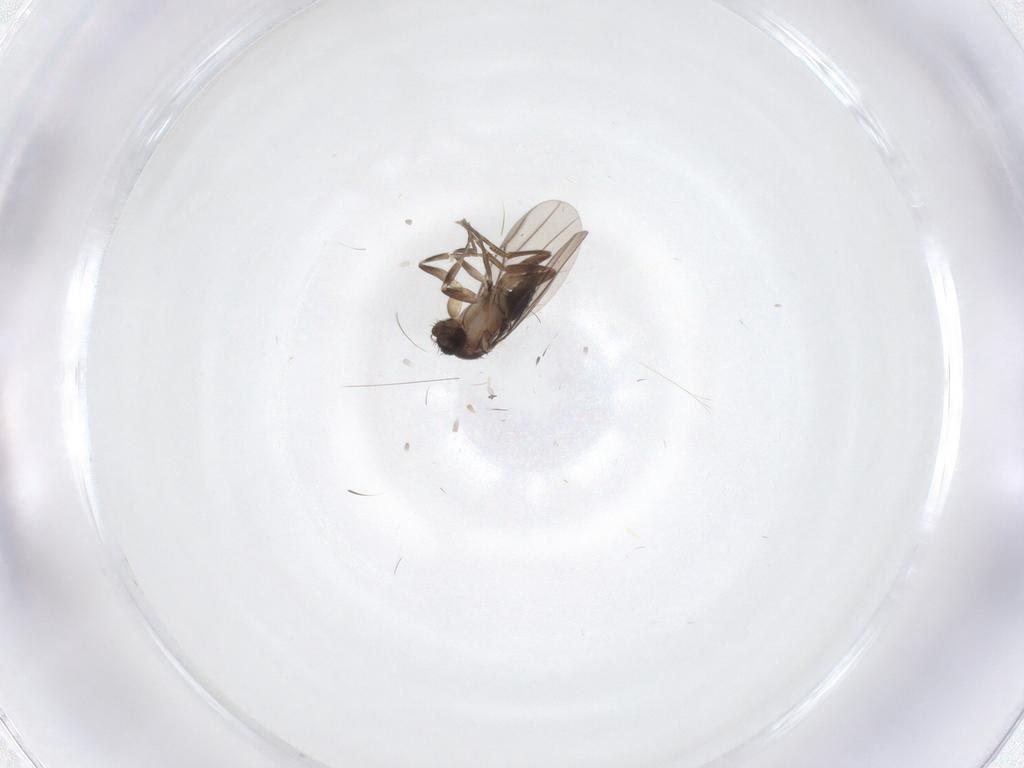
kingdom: Animalia
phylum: Arthropoda
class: Insecta
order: Diptera
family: Phoridae
